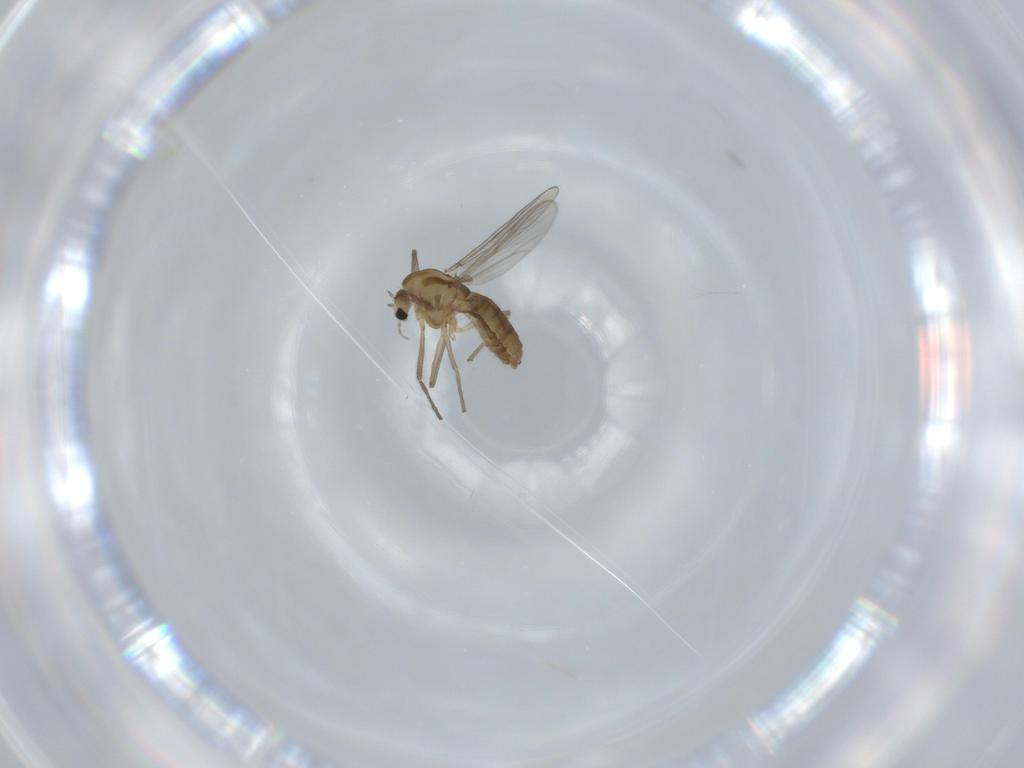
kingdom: Animalia
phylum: Arthropoda
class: Insecta
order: Diptera
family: Chironomidae
